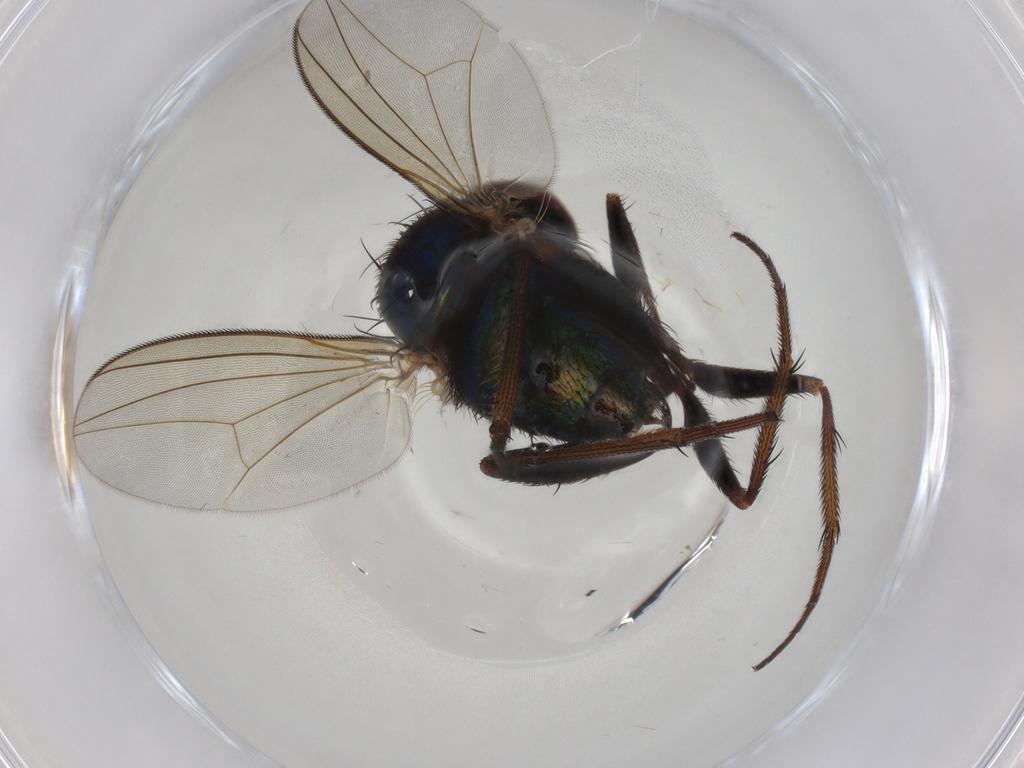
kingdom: Animalia
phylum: Arthropoda
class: Insecta
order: Diptera
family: Dolichopodidae
